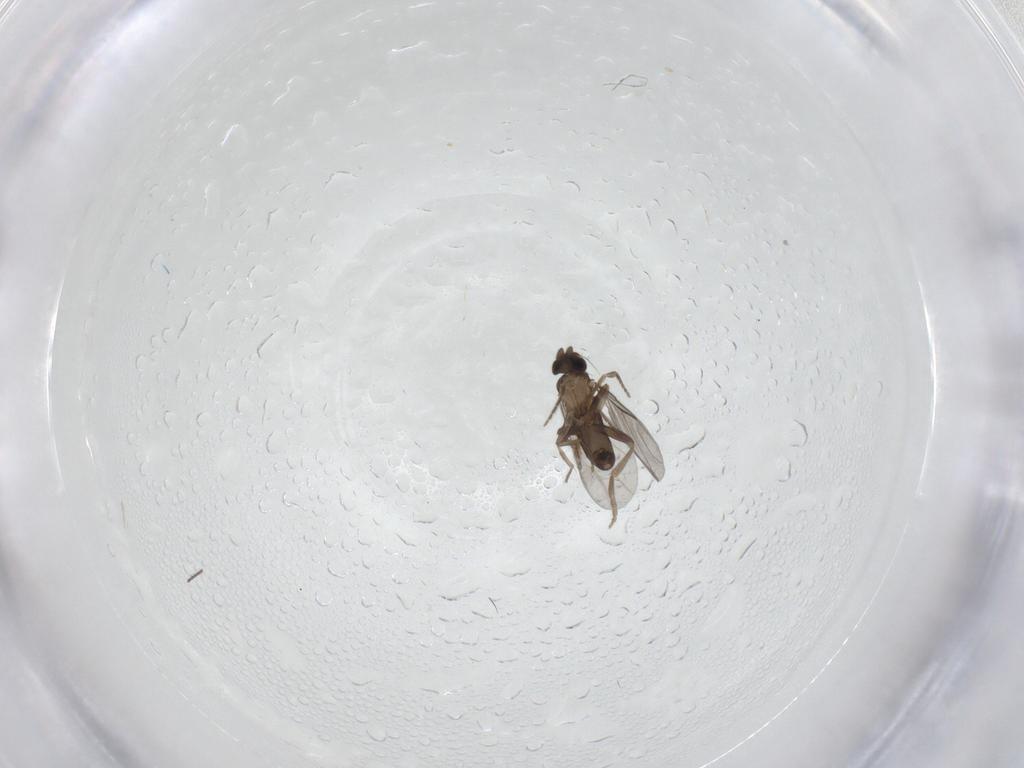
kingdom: Animalia
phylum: Arthropoda
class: Insecta
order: Diptera
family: Cecidomyiidae
